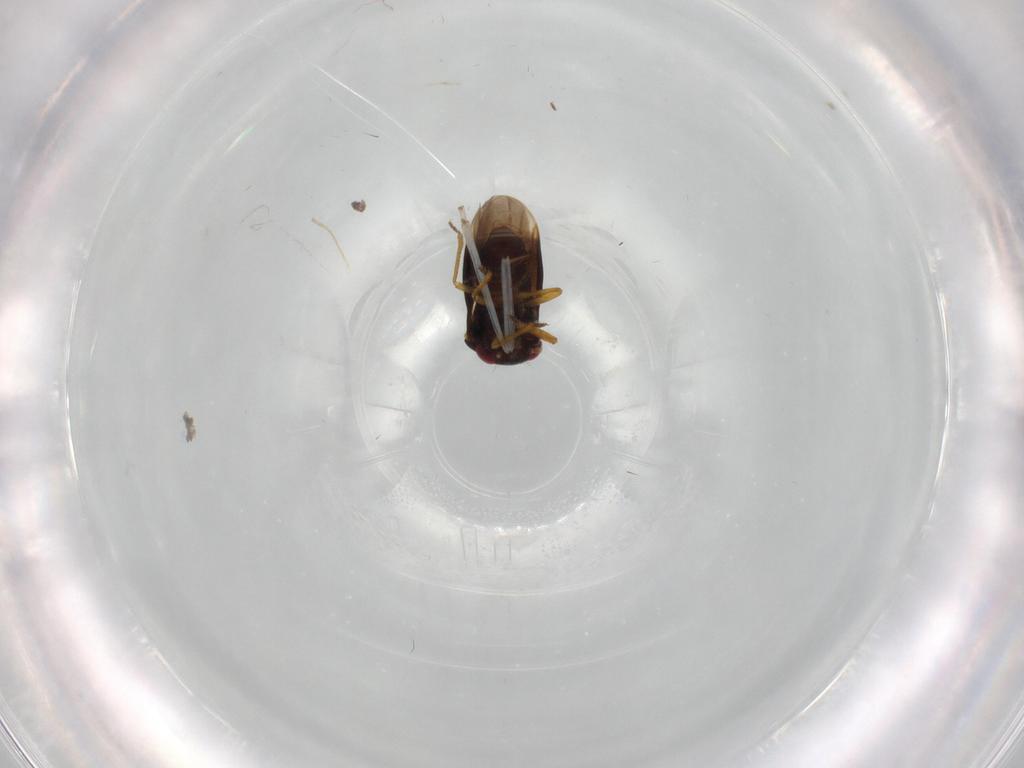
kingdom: Animalia
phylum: Arthropoda
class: Insecta
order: Hemiptera
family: Schizopteridae
